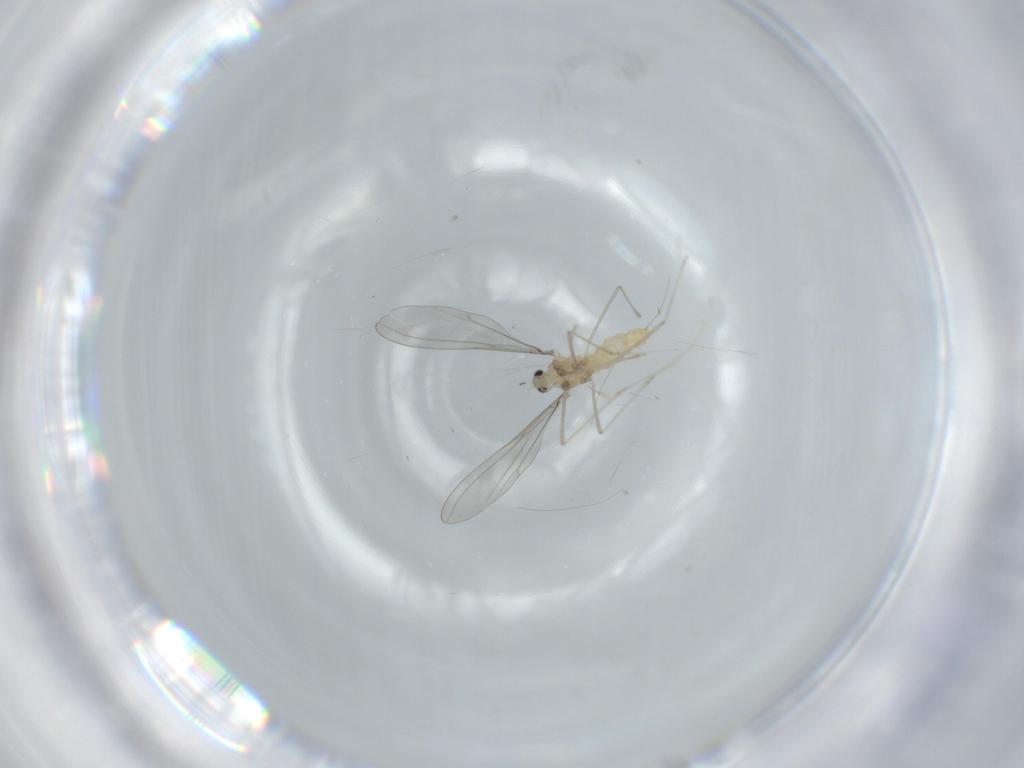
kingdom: Animalia
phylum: Arthropoda
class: Insecta
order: Diptera
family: Cecidomyiidae
